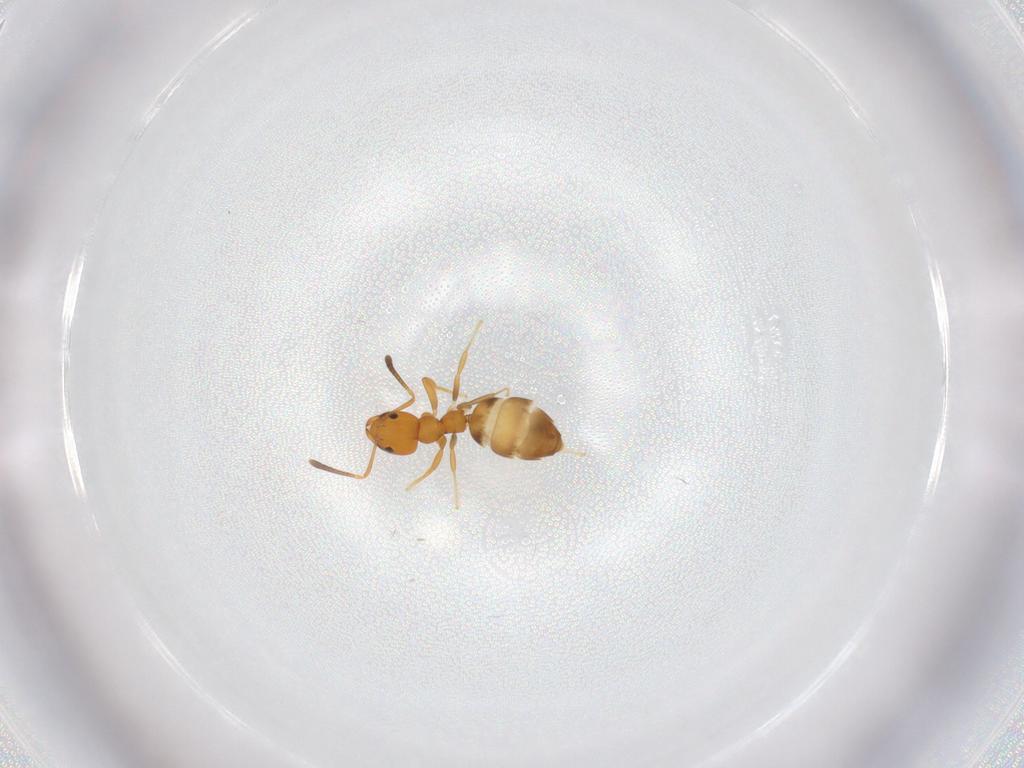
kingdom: Animalia
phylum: Arthropoda
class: Insecta
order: Hymenoptera
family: Formicidae
